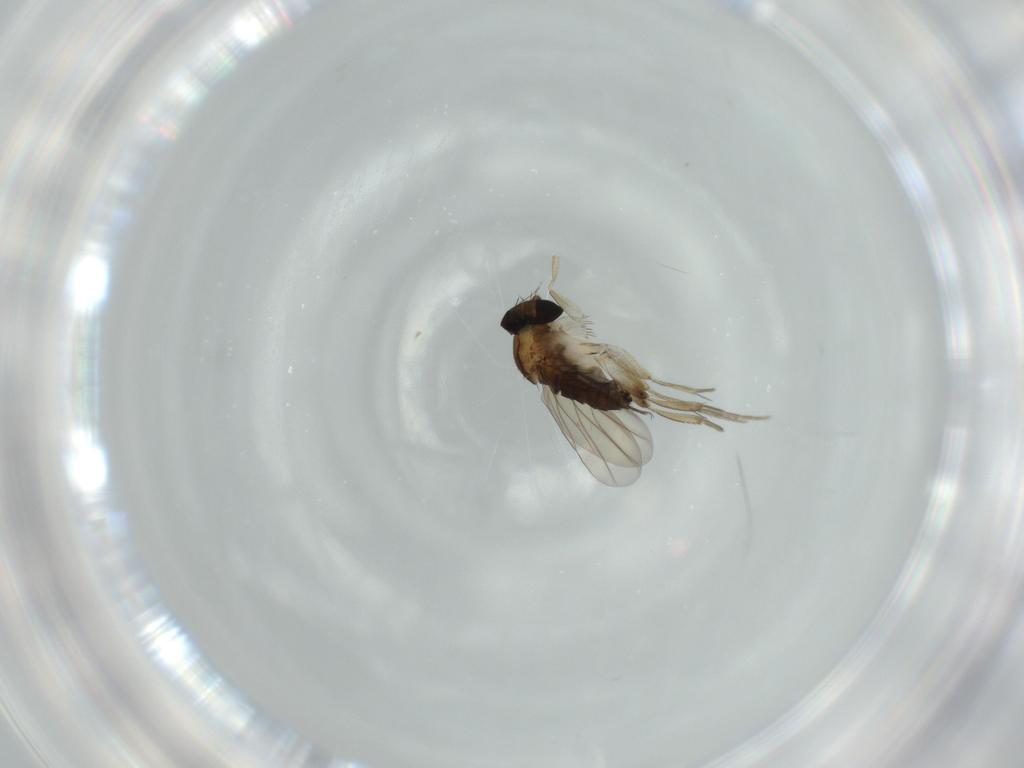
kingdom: Animalia
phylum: Arthropoda
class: Insecta
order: Diptera
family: Phoridae
